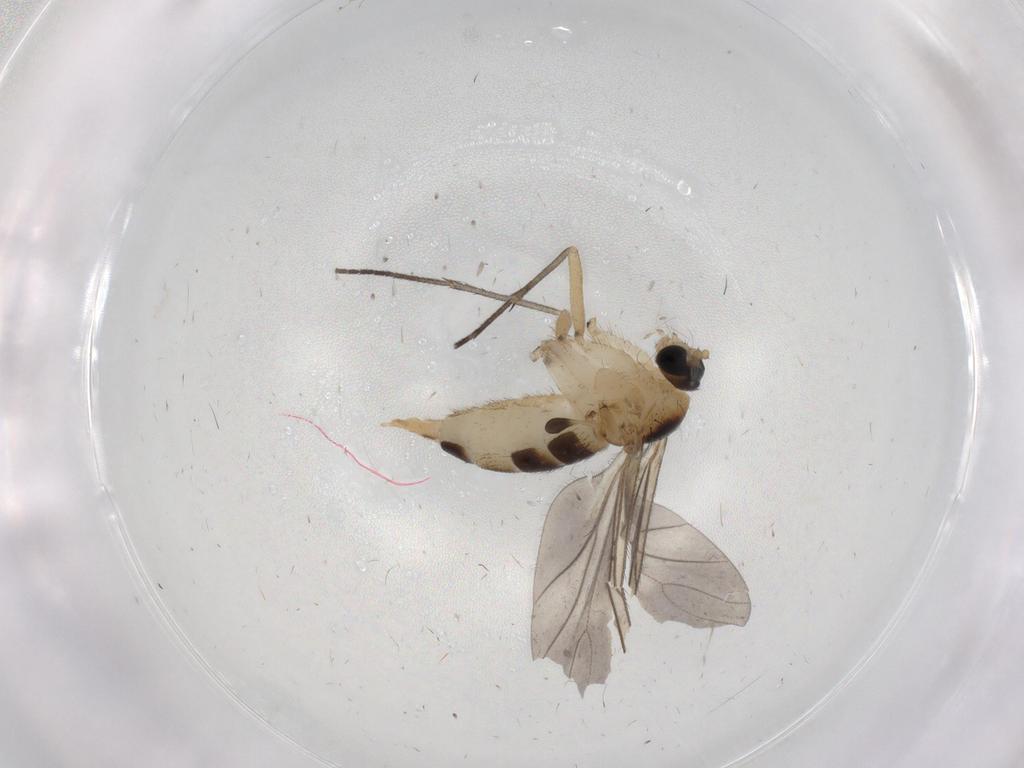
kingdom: Animalia
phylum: Arthropoda
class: Insecta
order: Diptera
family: Sciaridae
